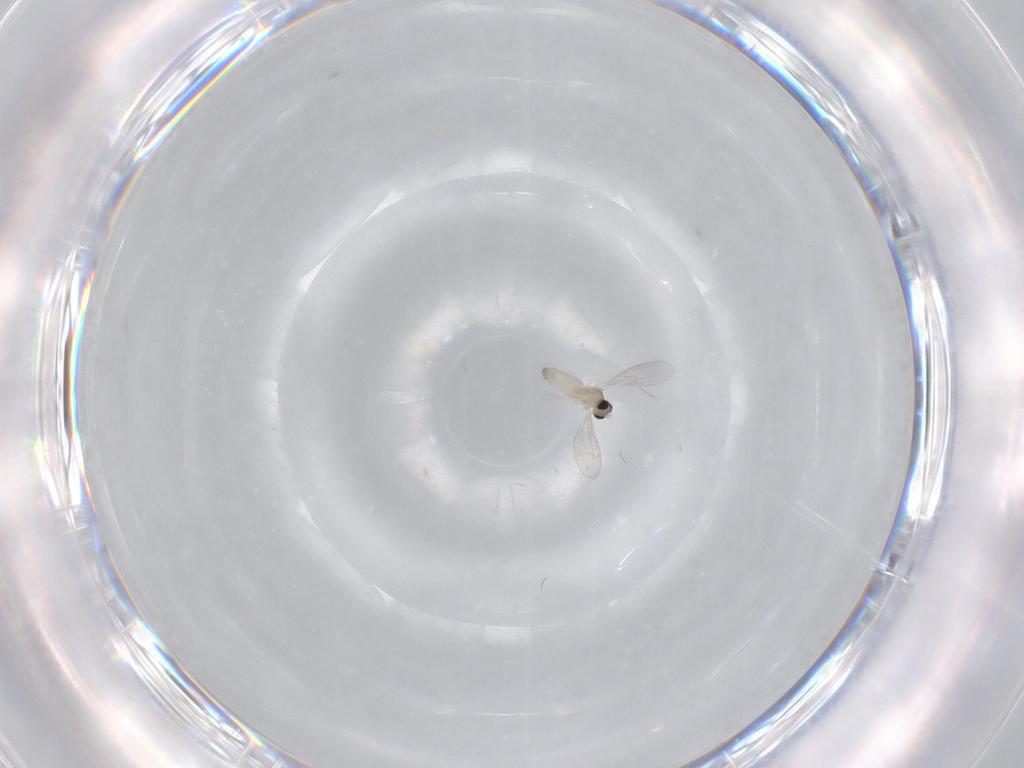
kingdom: Animalia
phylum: Arthropoda
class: Insecta
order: Diptera
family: Cecidomyiidae
